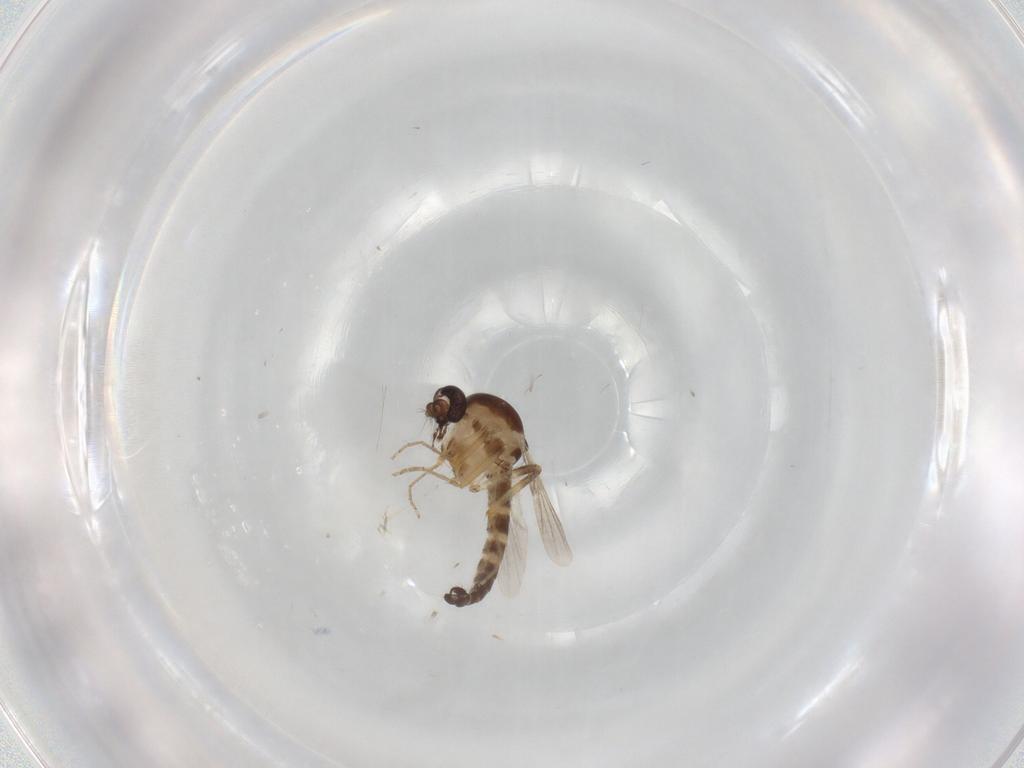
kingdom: Animalia
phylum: Arthropoda
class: Insecta
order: Diptera
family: Ceratopogonidae
